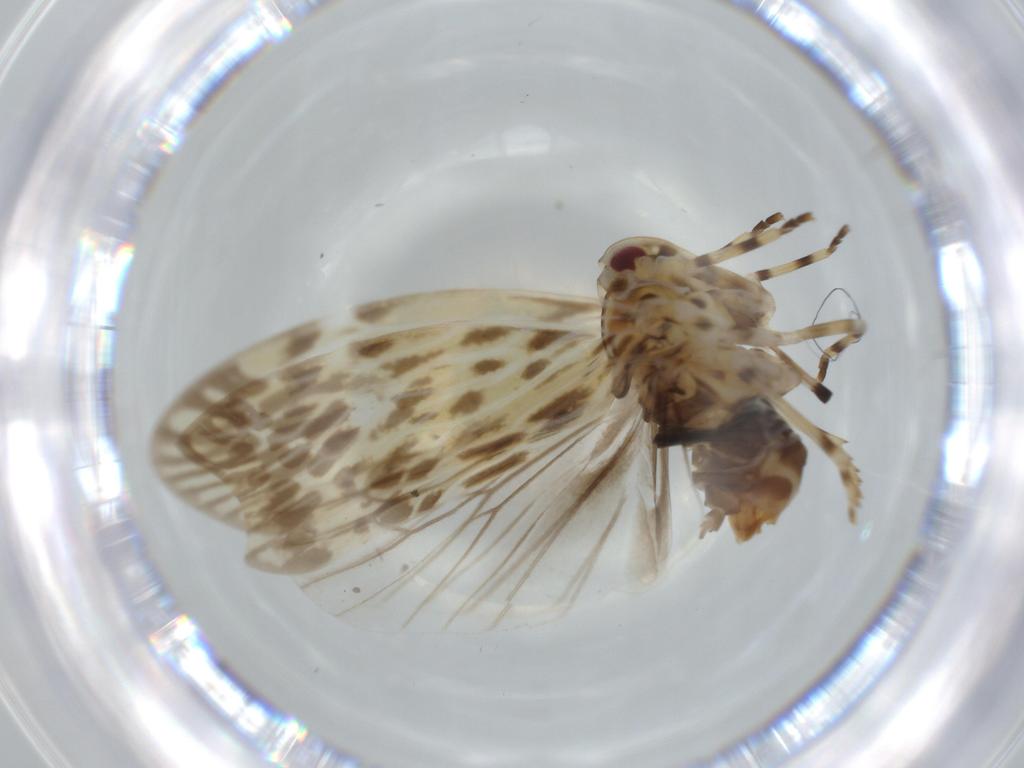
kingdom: Animalia
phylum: Arthropoda
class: Insecta
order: Hemiptera
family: Derbidae
